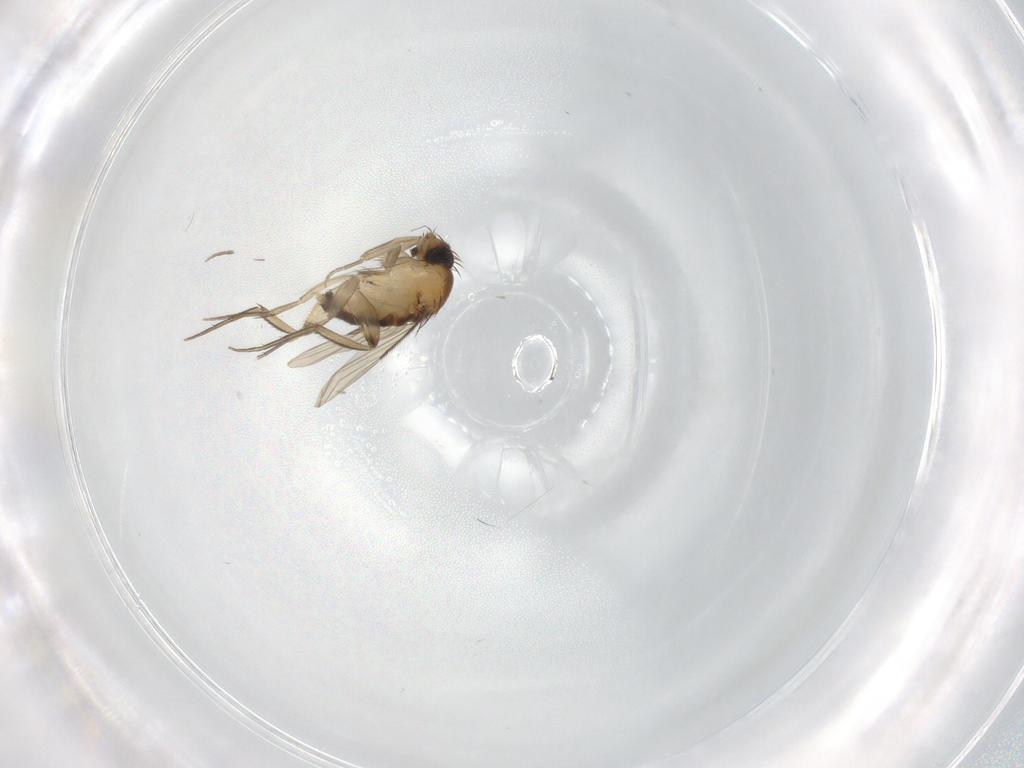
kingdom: Animalia
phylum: Arthropoda
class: Insecta
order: Diptera
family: Phoridae
